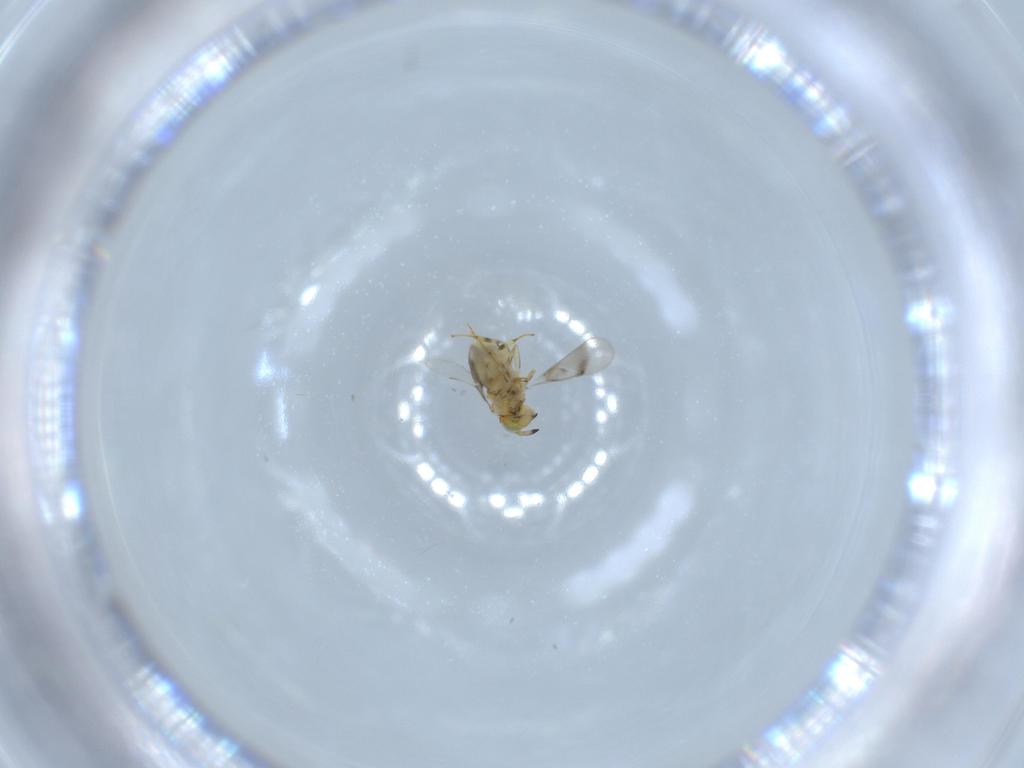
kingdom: Animalia
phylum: Arthropoda
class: Insecta
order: Hymenoptera
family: Aphelinidae
